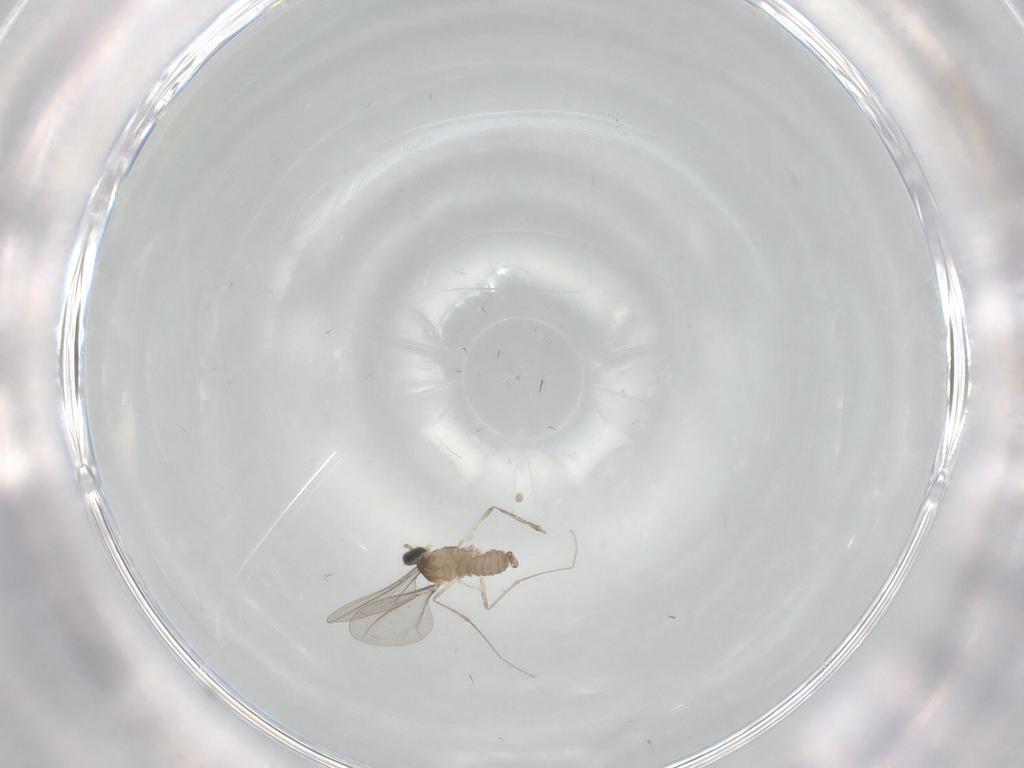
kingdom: Animalia
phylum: Arthropoda
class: Insecta
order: Diptera
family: Cecidomyiidae
